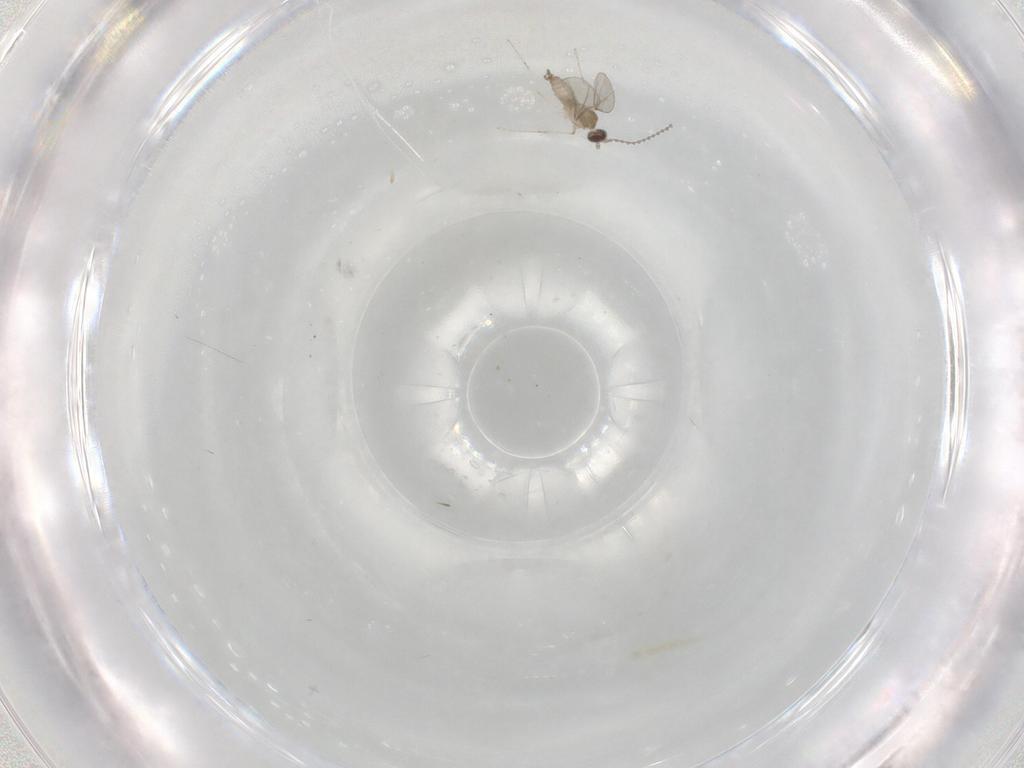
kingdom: Animalia
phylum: Arthropoda
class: Insecta
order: Diptera
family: Cecidomyiidae
